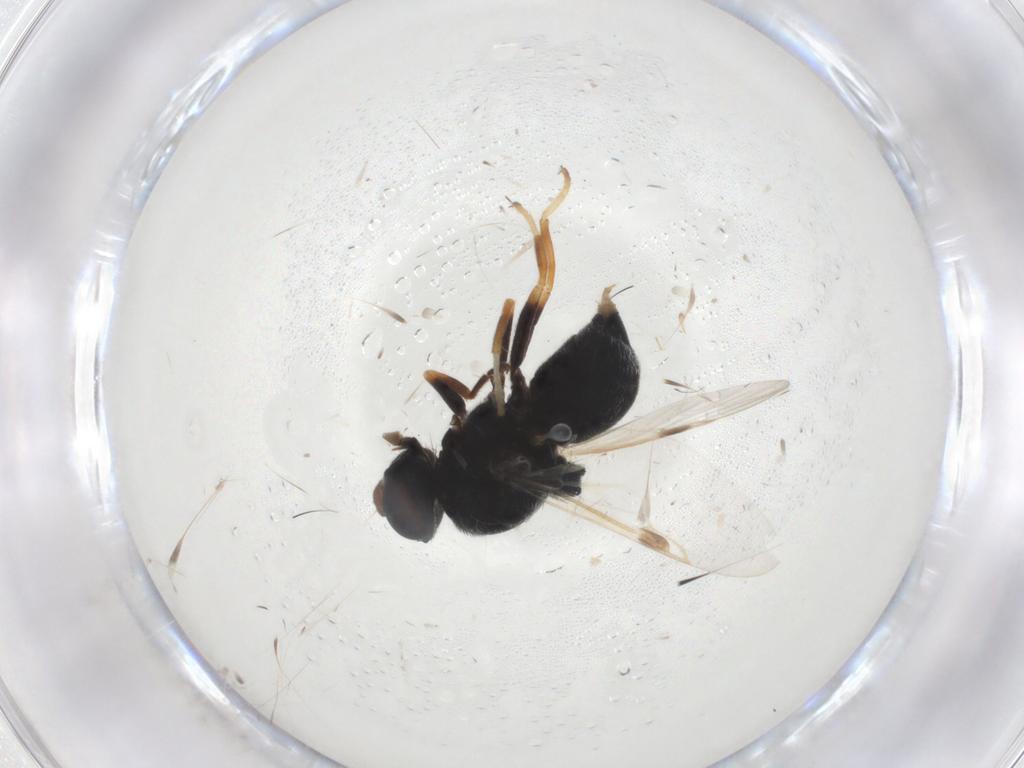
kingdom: Animalia
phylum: Arthropoda
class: Insecta
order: Diptera
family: Stratiomyidae
